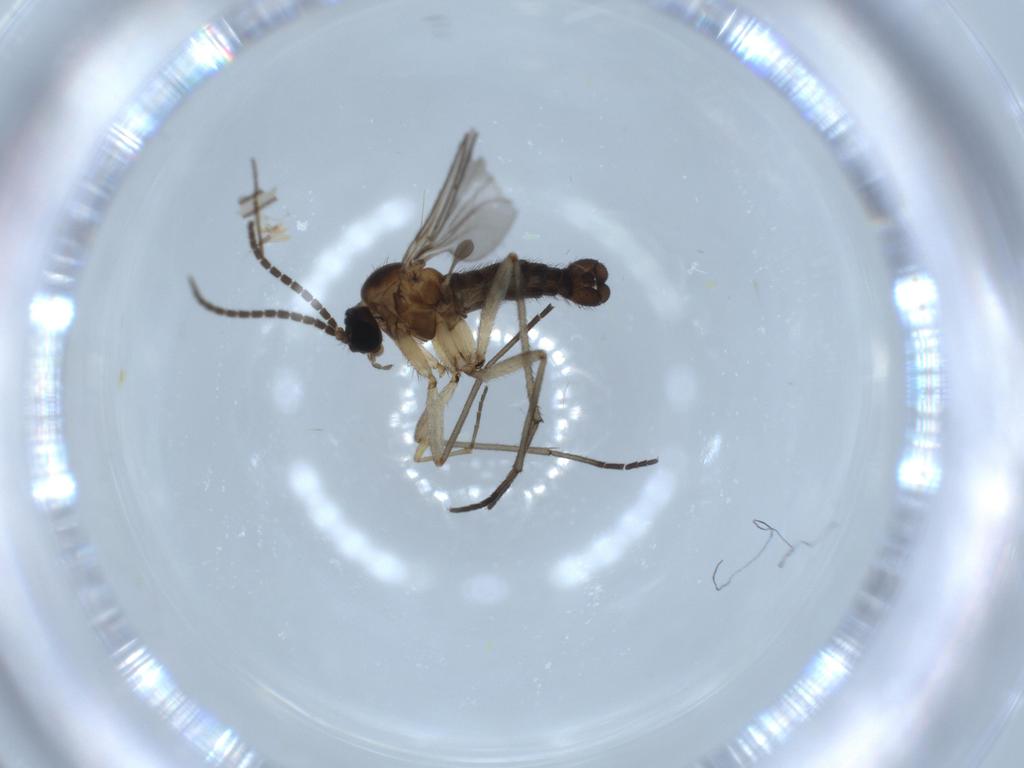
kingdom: Animalia
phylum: Arthropoda
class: Insecta
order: Diptera
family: Sciaridae
